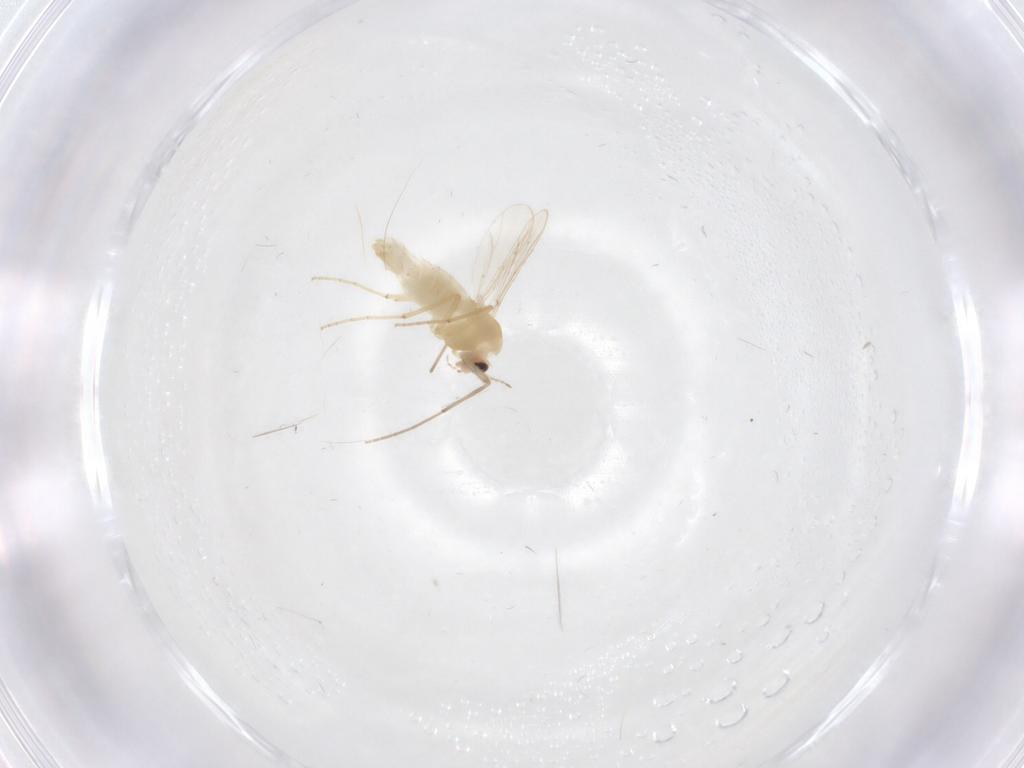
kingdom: Animalia
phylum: Arthropoda
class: Insecta
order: Diptera
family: Chironomidae
